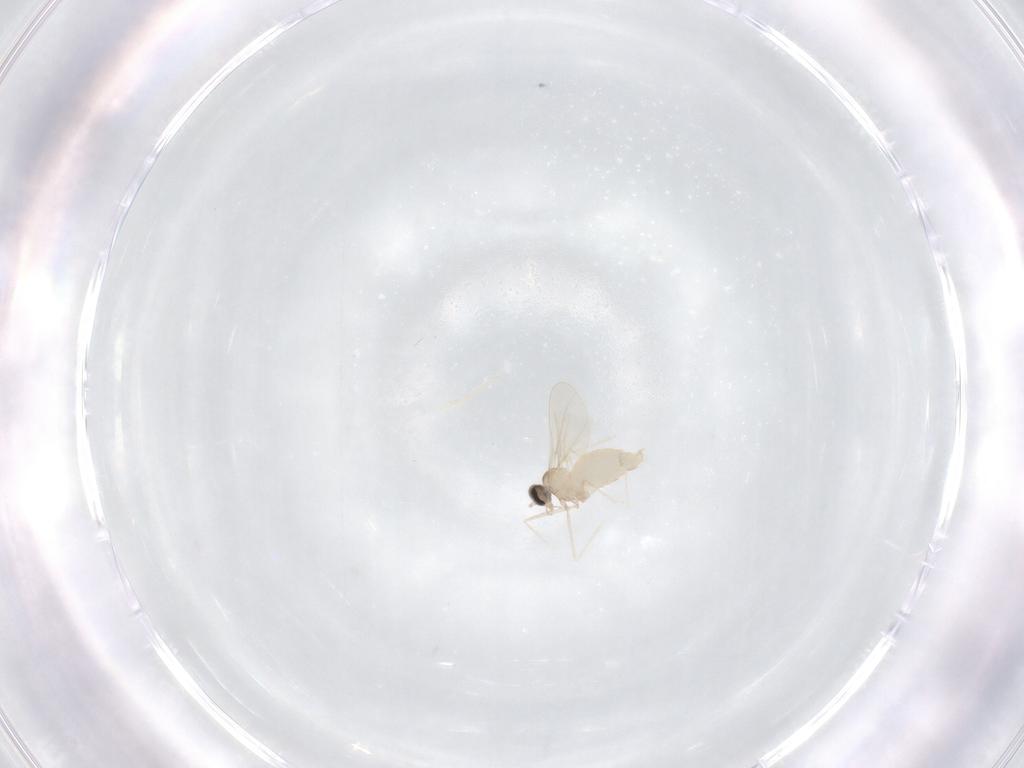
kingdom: Animalia
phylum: Arthropoda
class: Insecta
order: Diptera
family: Cecidomyiidae
